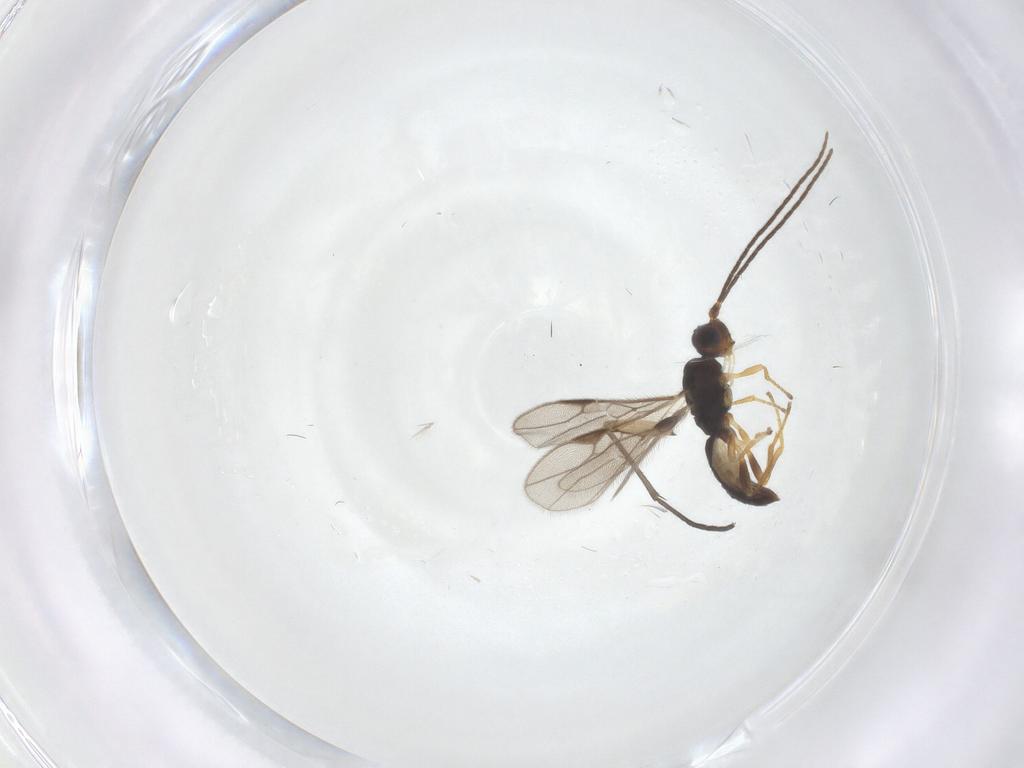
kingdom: Animalia
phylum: Arthropoda
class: Insecta
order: Hymenoptera
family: Braconidae
